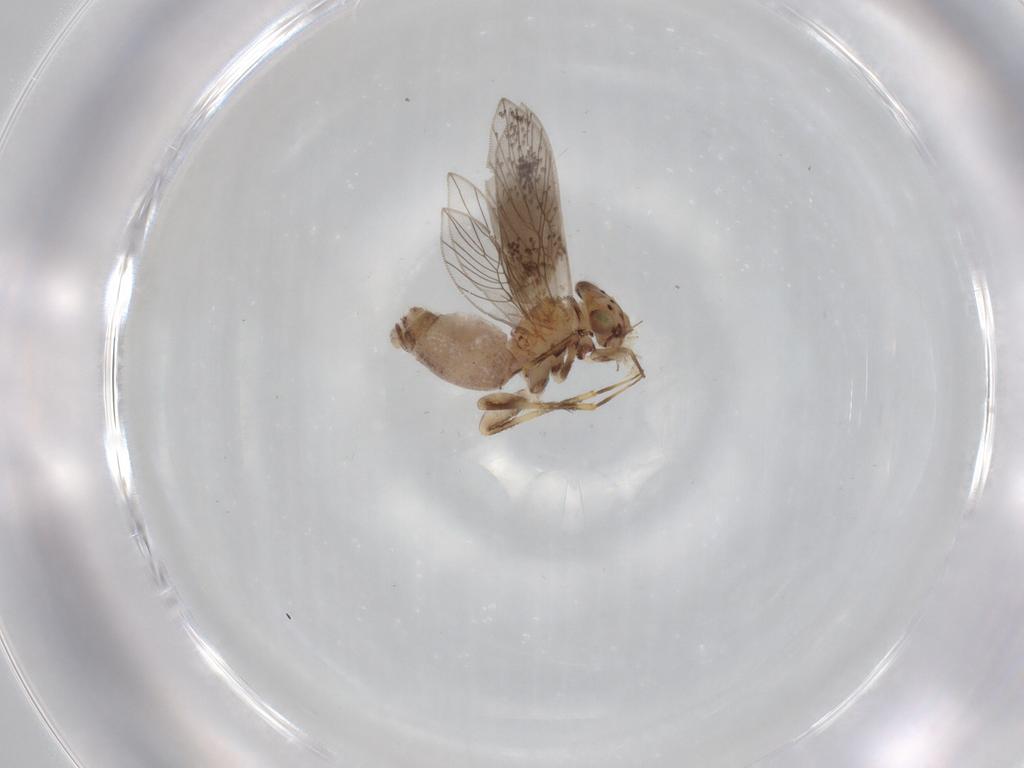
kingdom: Animalia
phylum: Arthropoda
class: Insecta
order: Psocodea
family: Lepidopsocidae
